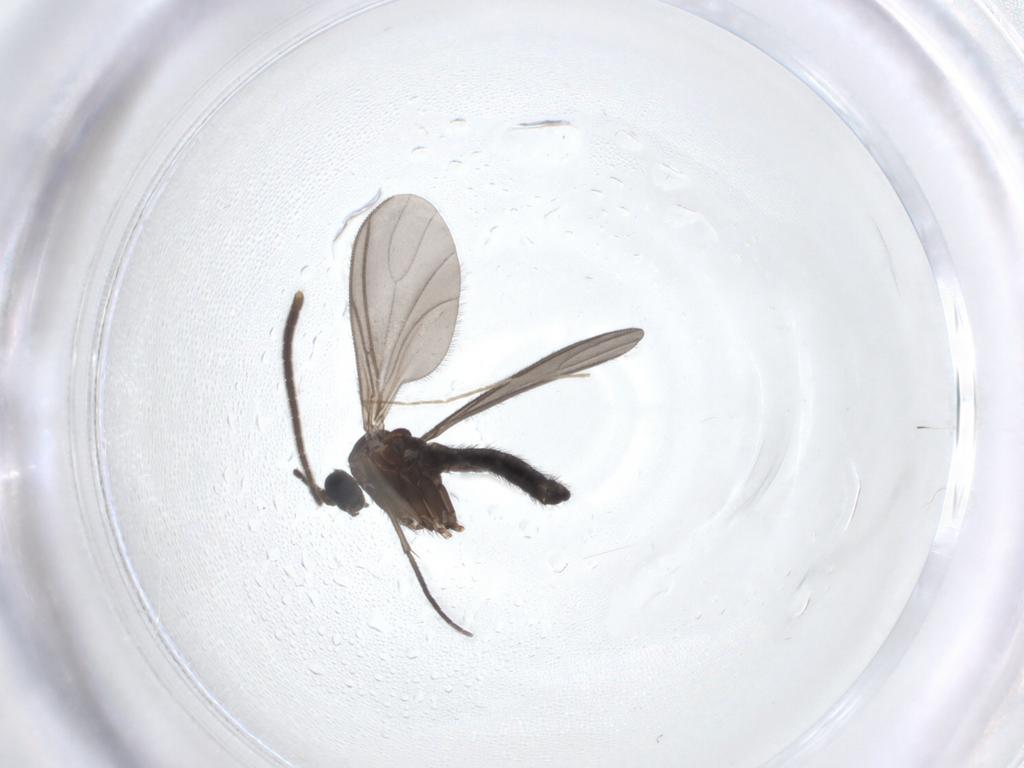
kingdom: Animalia
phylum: Arthropoda
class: Insecta
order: Diptera
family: Sciaridae
